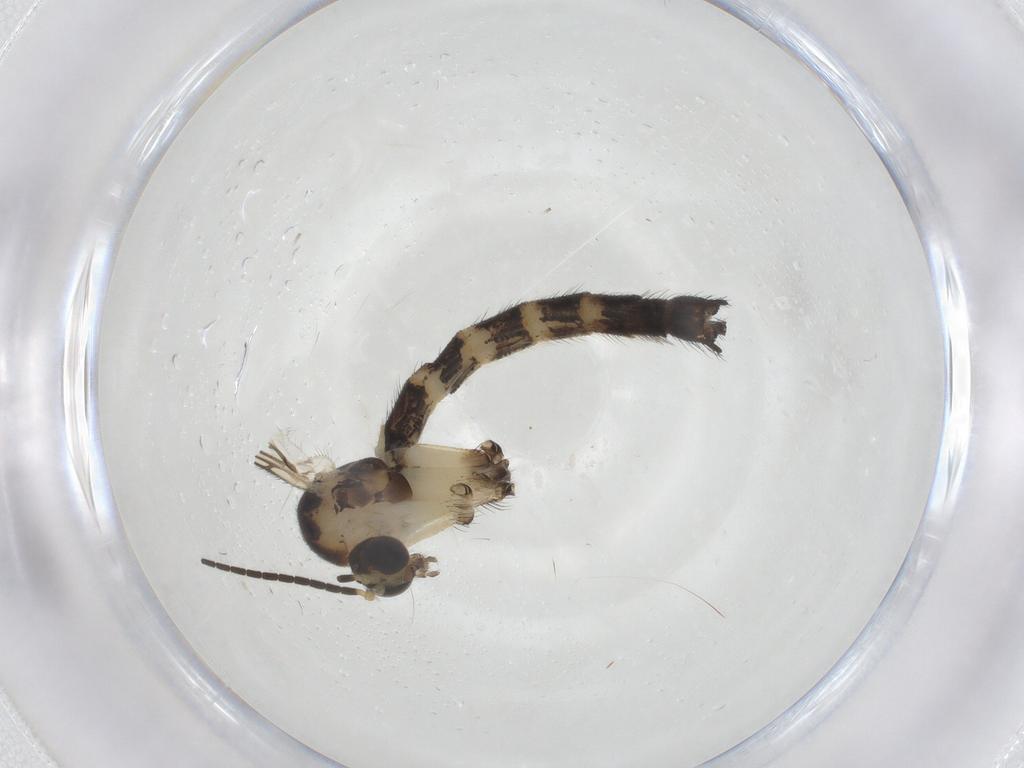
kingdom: Animalia
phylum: Arthropoda
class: Insecta
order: Diptera
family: Mycetophilidae
